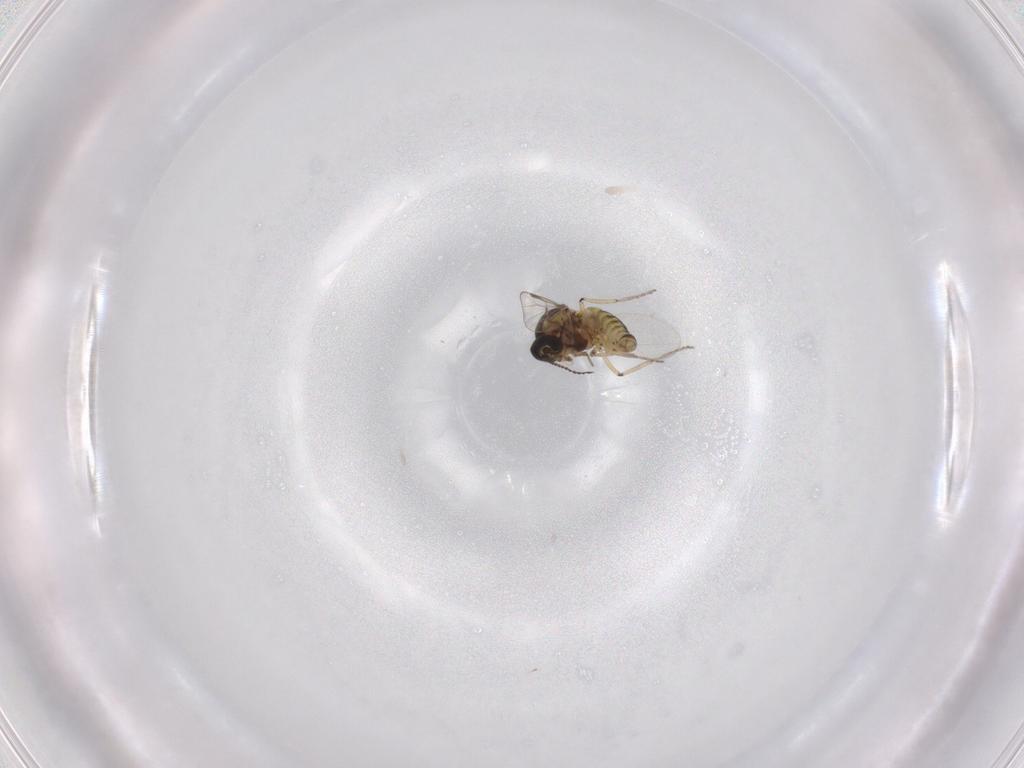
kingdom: Animalia
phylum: Arthropoda
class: Insecta
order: Diptera
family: Ceratopogonidae
